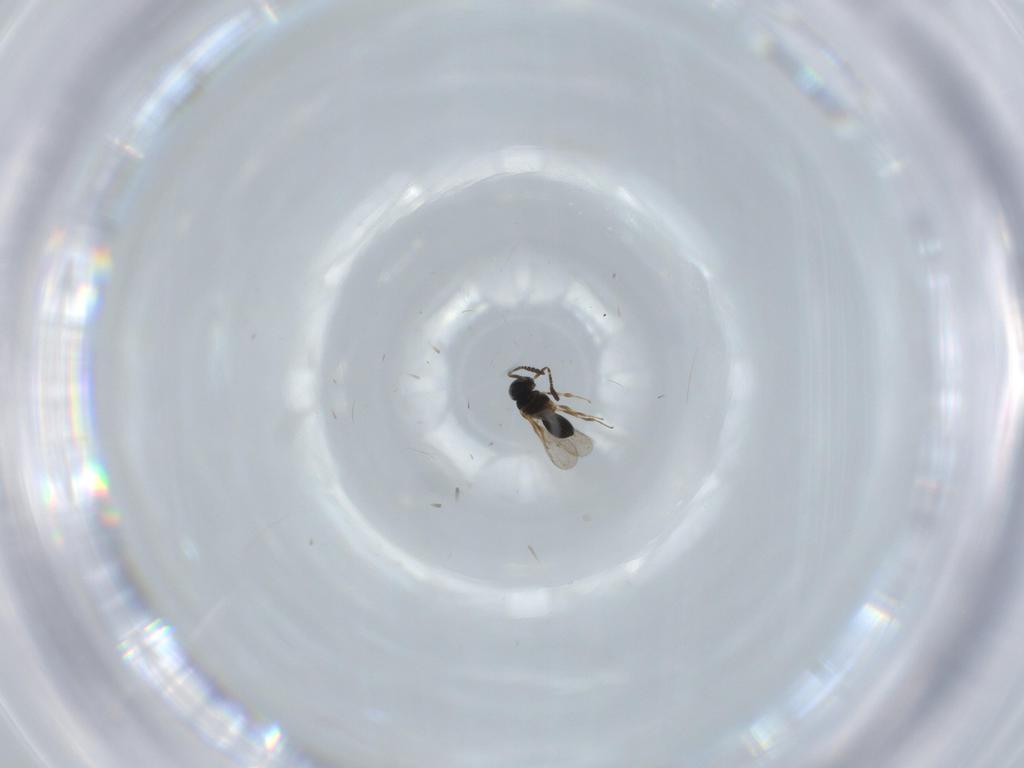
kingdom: Animalia
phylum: Arthropoda
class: Insecta
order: Hymenoptera
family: Scelionidae
